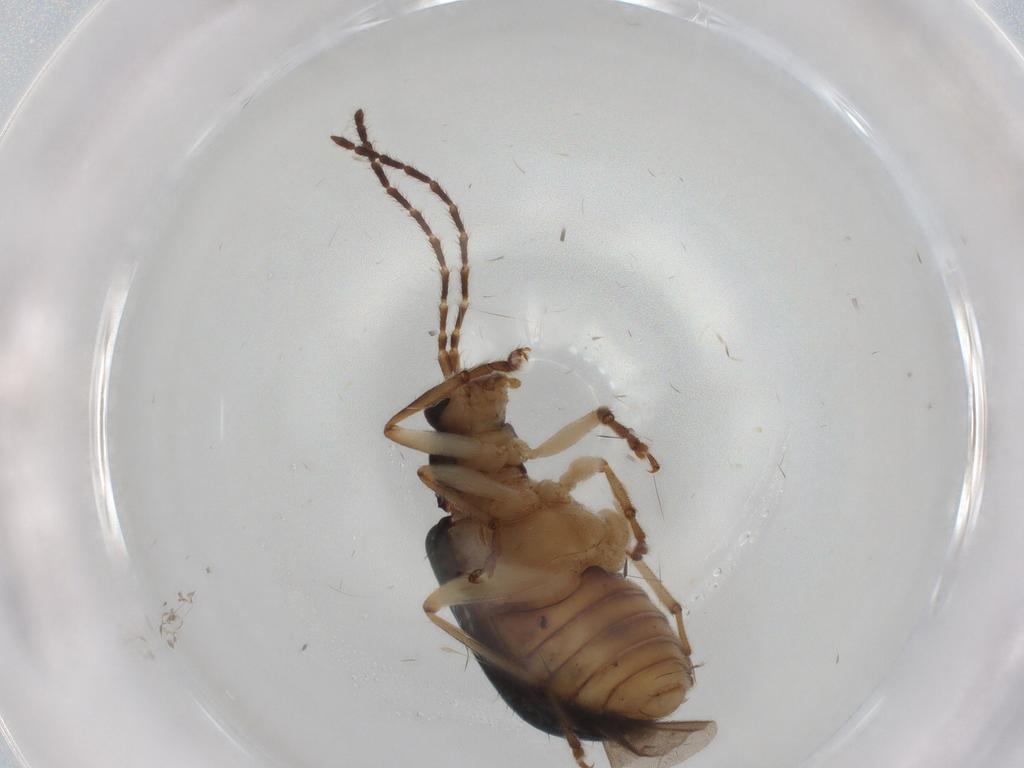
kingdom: Animalia
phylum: Arthropoda
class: Insecta
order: Coleoptera
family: Chrysomelidae
